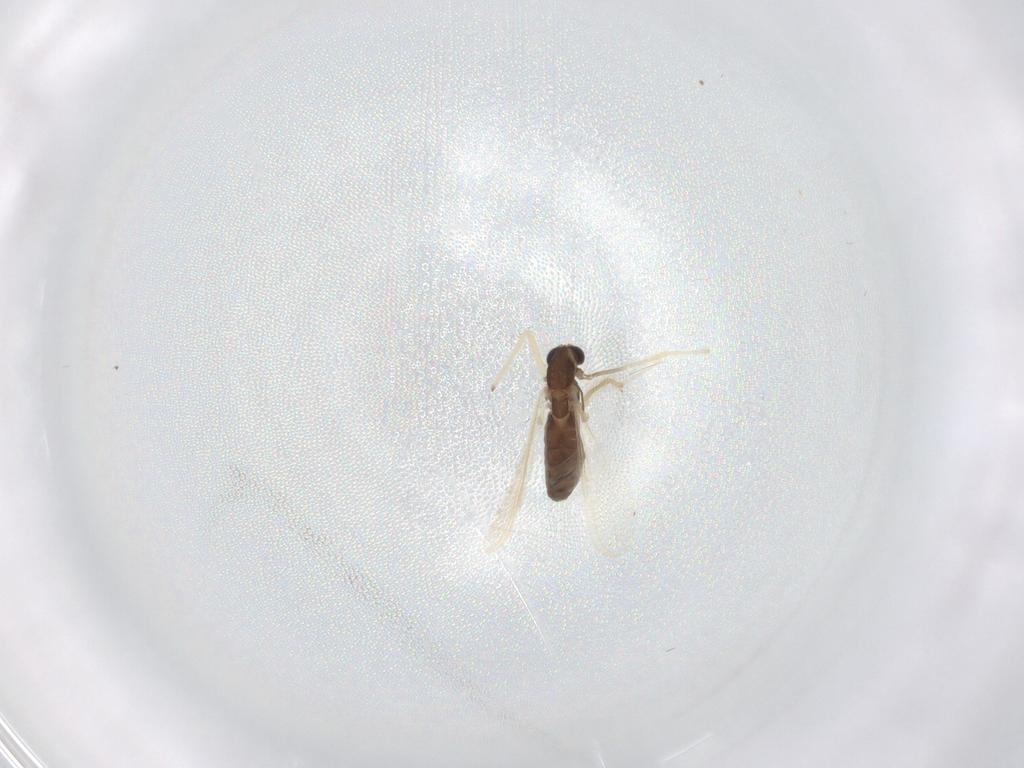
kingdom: Animalia
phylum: Arthropoda
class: Insecta
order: Diptera
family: Chironomidae
